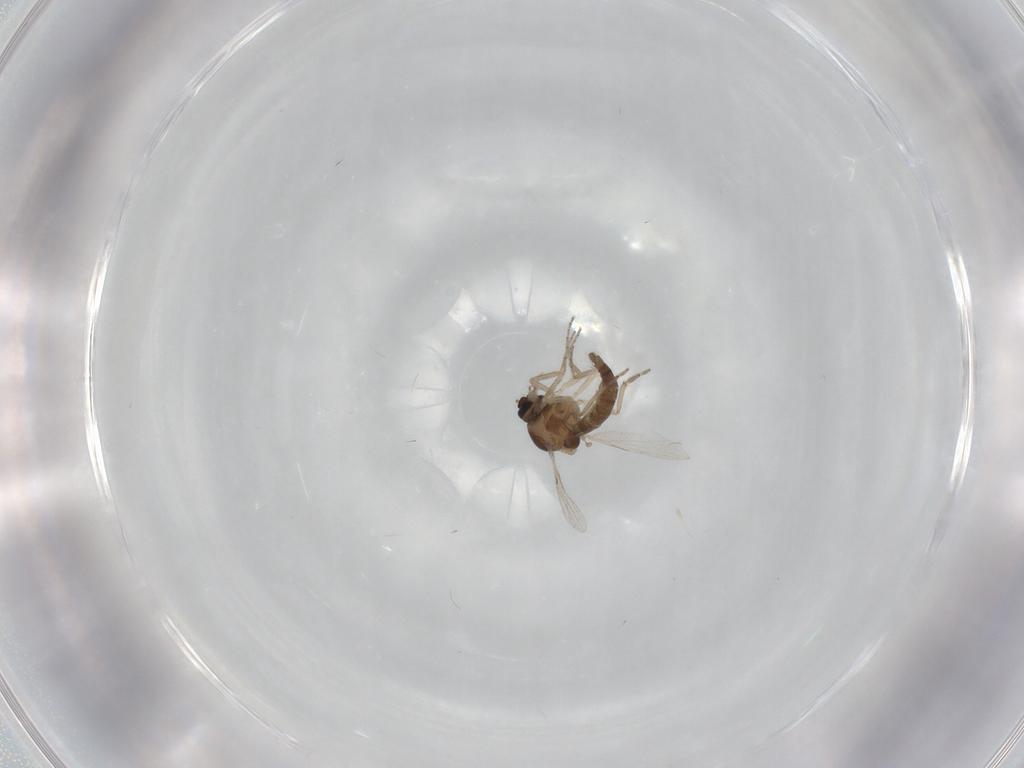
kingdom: Animalia
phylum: Arthropoda
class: Insecta
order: Diptera
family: Ceratopogonidae
